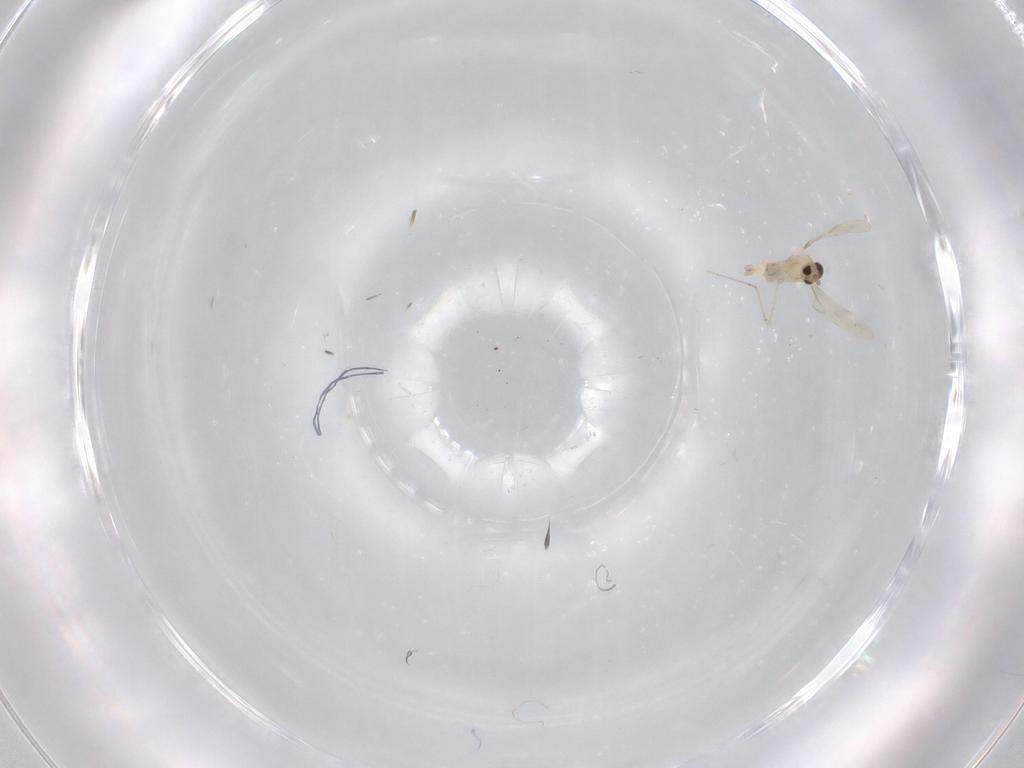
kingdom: Animalia
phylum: Arthropoda
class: Insecta
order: Diptera
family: Cecidomyiidae
